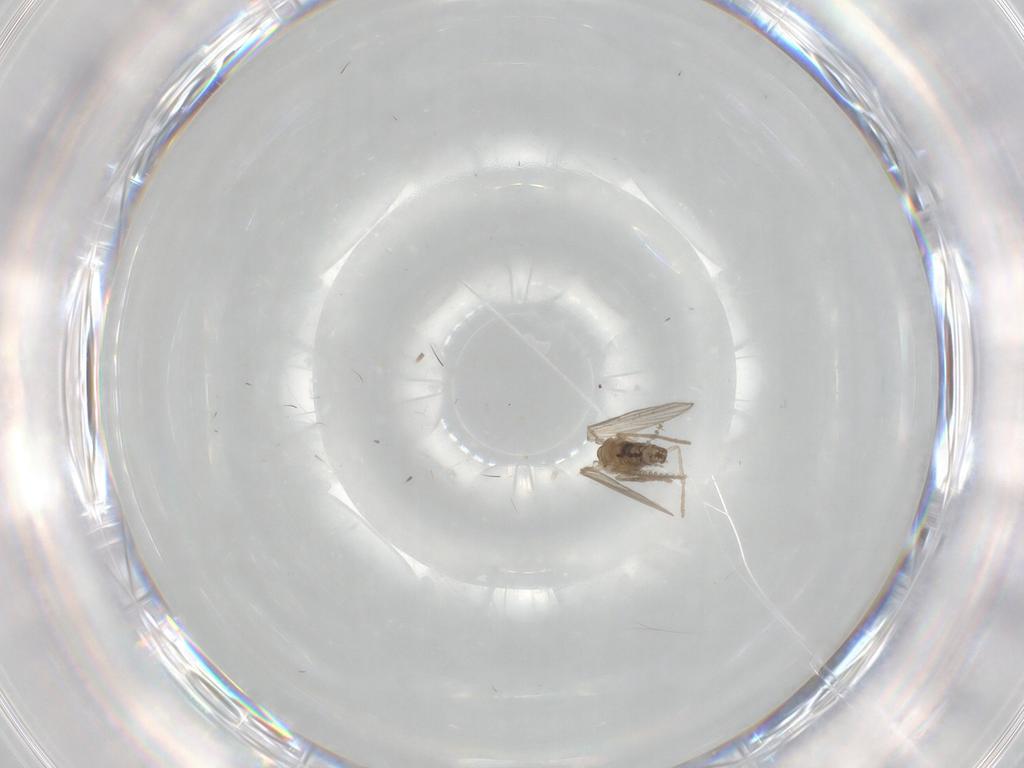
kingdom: Animalia
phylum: Arthropoda
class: Insecta
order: Diptera
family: Psychodidae
